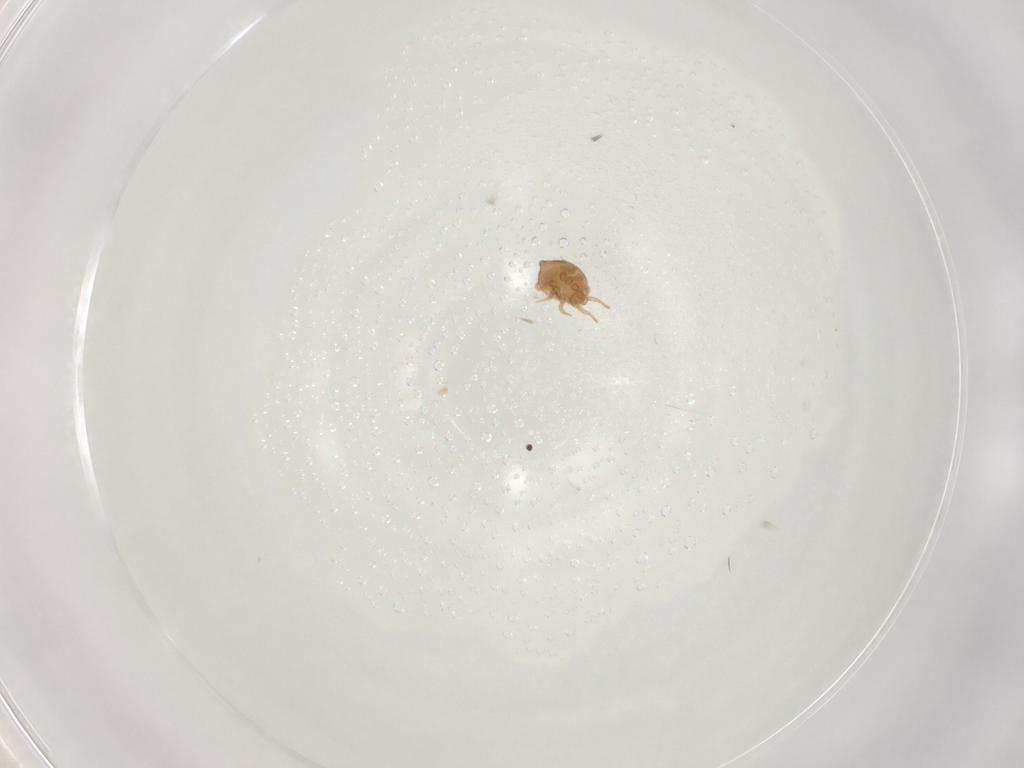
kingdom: Animalia
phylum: Arthropoda
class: Arachnida
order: Mesostigmata
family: Polyaspididae
